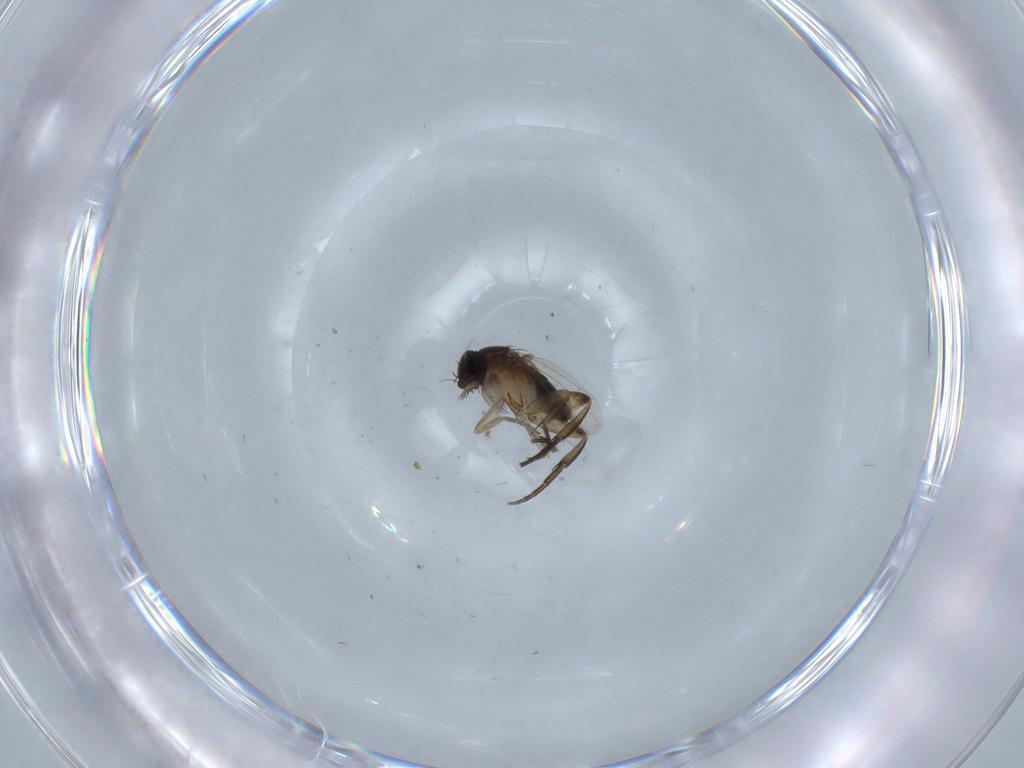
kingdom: Animalia
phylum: Arthropoda
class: Insecta
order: Diptera
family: Phoridae
